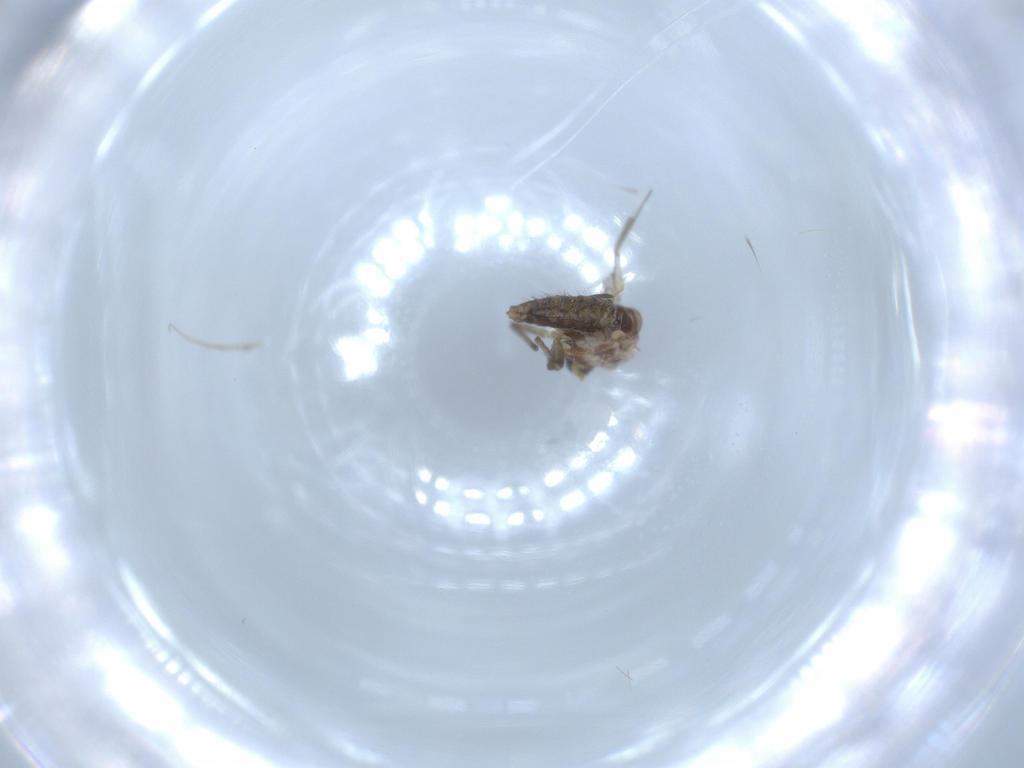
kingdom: Animalia
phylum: Arthropoda
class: Insecta
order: Diptera
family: Chironomidae
